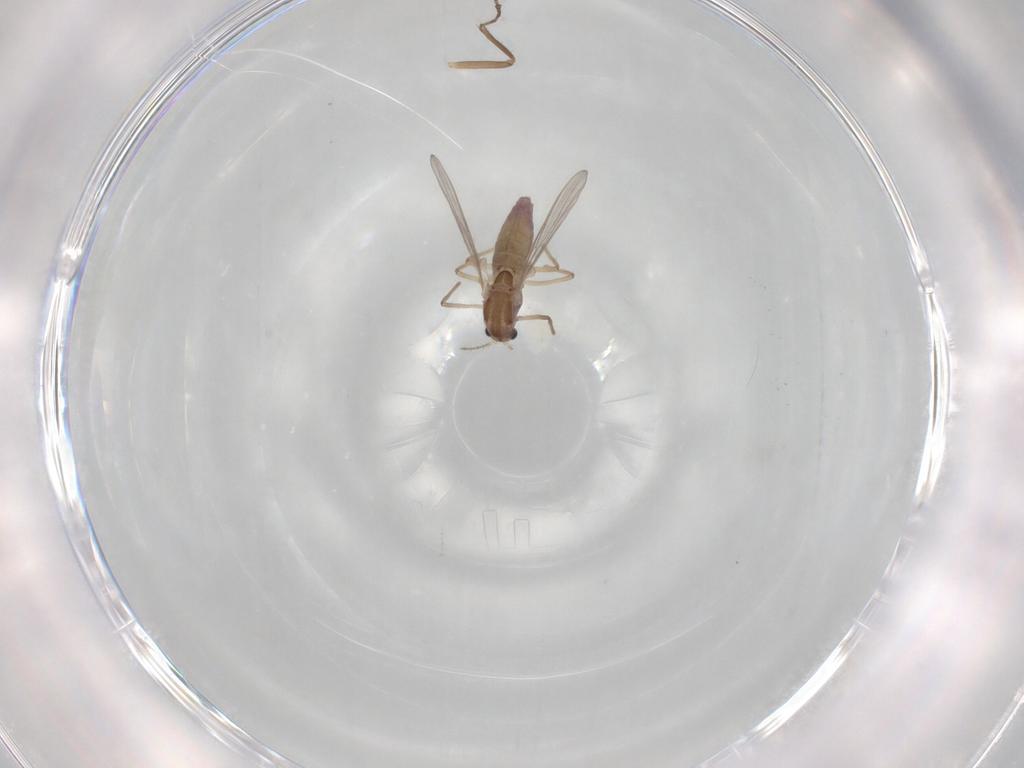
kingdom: Animalia
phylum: Arthropoda
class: Insecta
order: Diptera
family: Chironomidae
